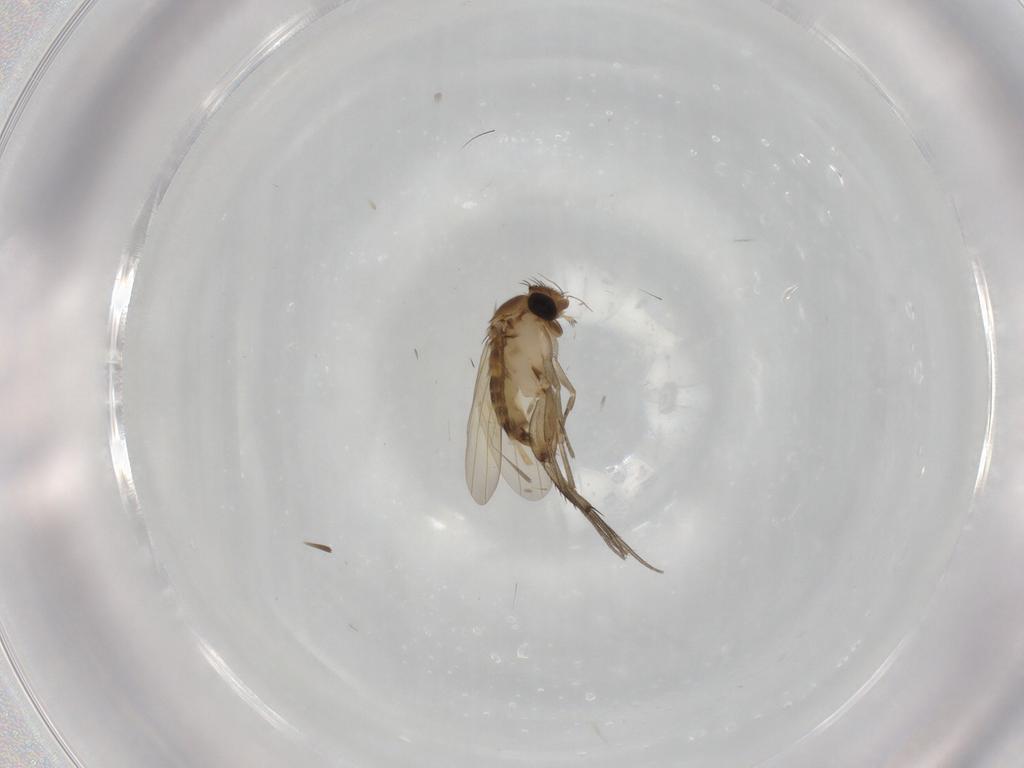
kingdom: Animalia
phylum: Arthropoda
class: Insecta
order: Diptera
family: Phoridae
